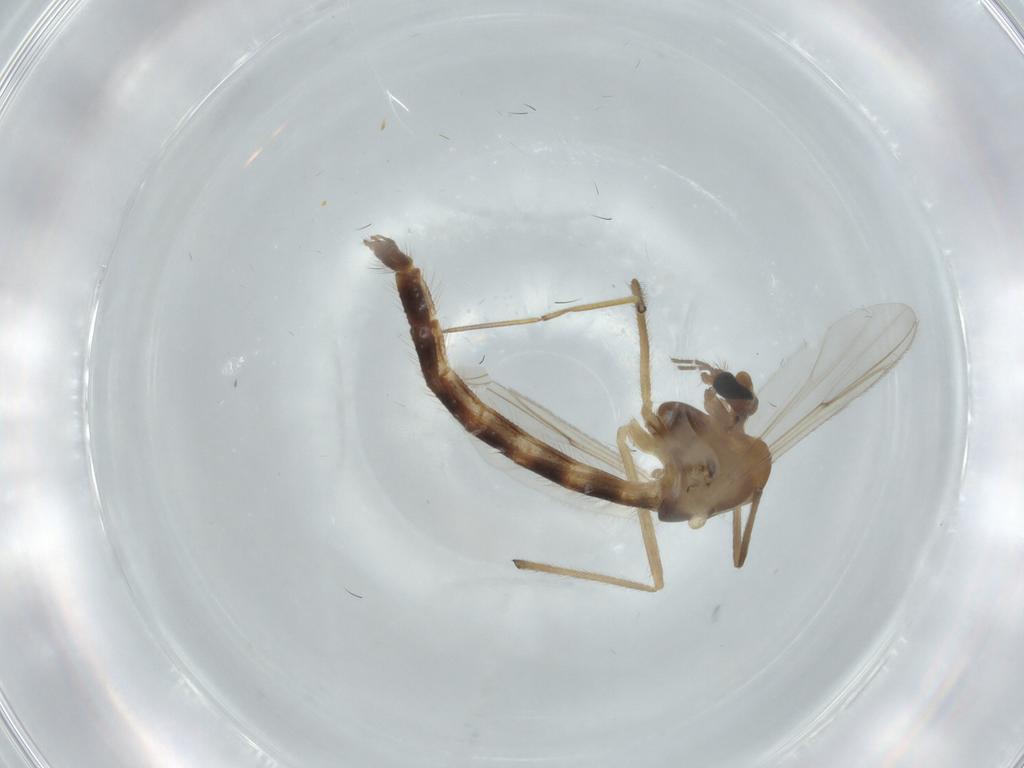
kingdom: Animalia
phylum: Arthropoda
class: Insecta
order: Diptera
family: Chironomidae
